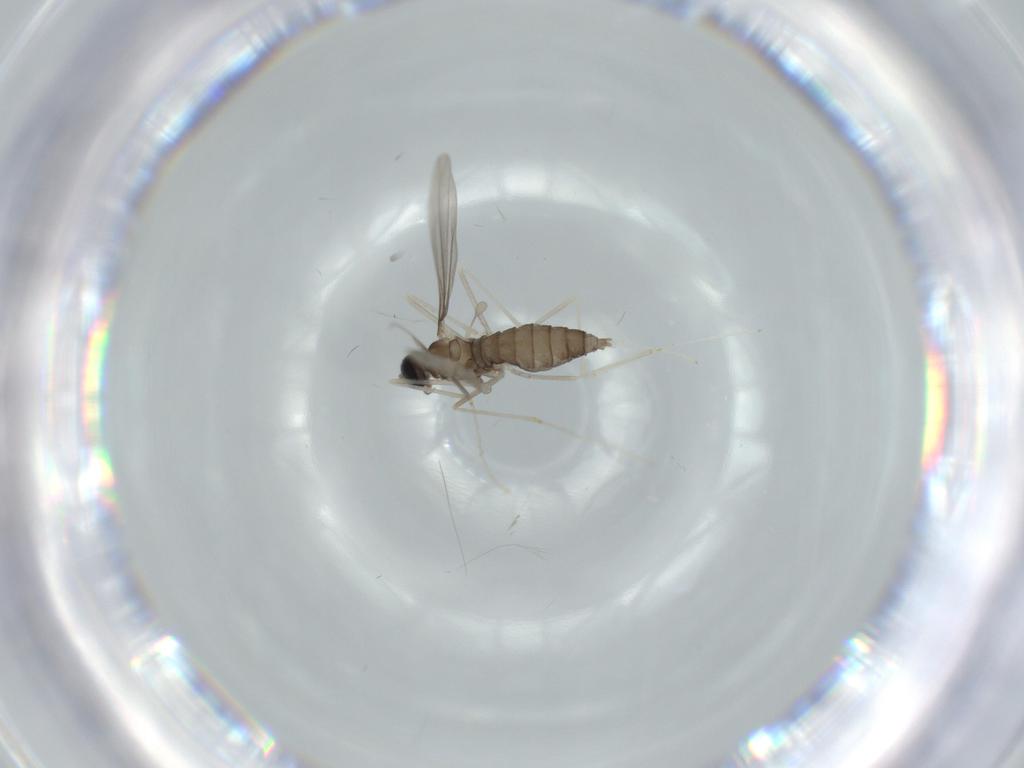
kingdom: Animalia
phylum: Arthropoda
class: Insecta
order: Diptera
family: Cecidomyiidae
